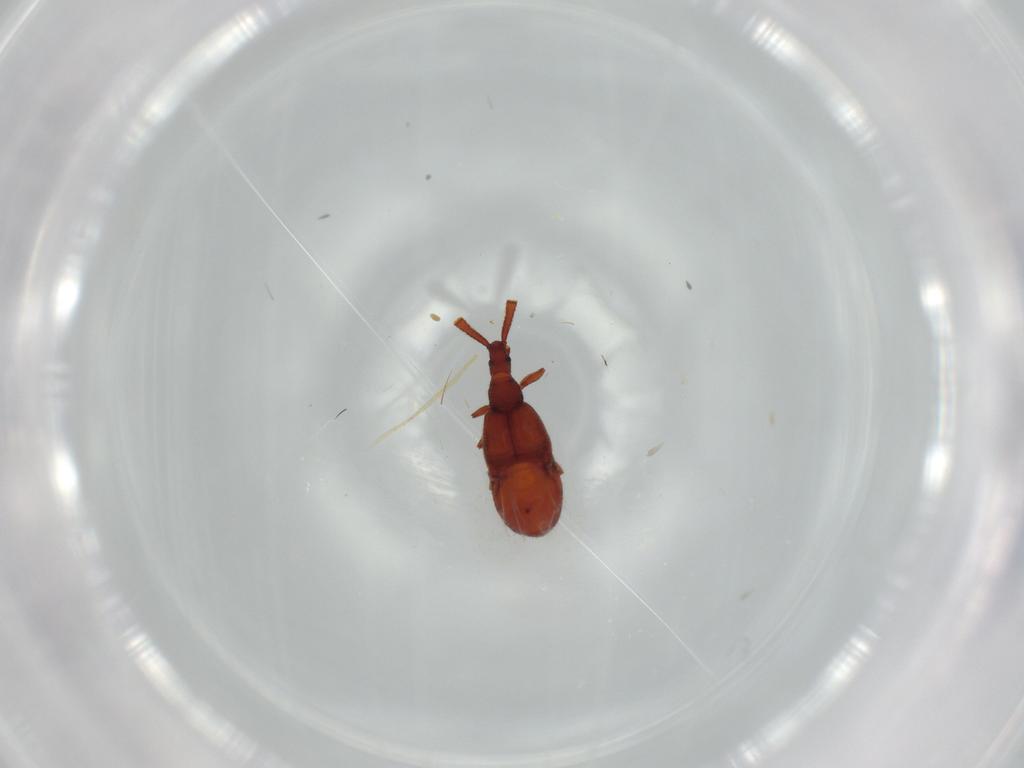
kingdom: Animalia
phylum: Arthropoda
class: Insecta
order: Coleoptera
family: Staphylinidae
